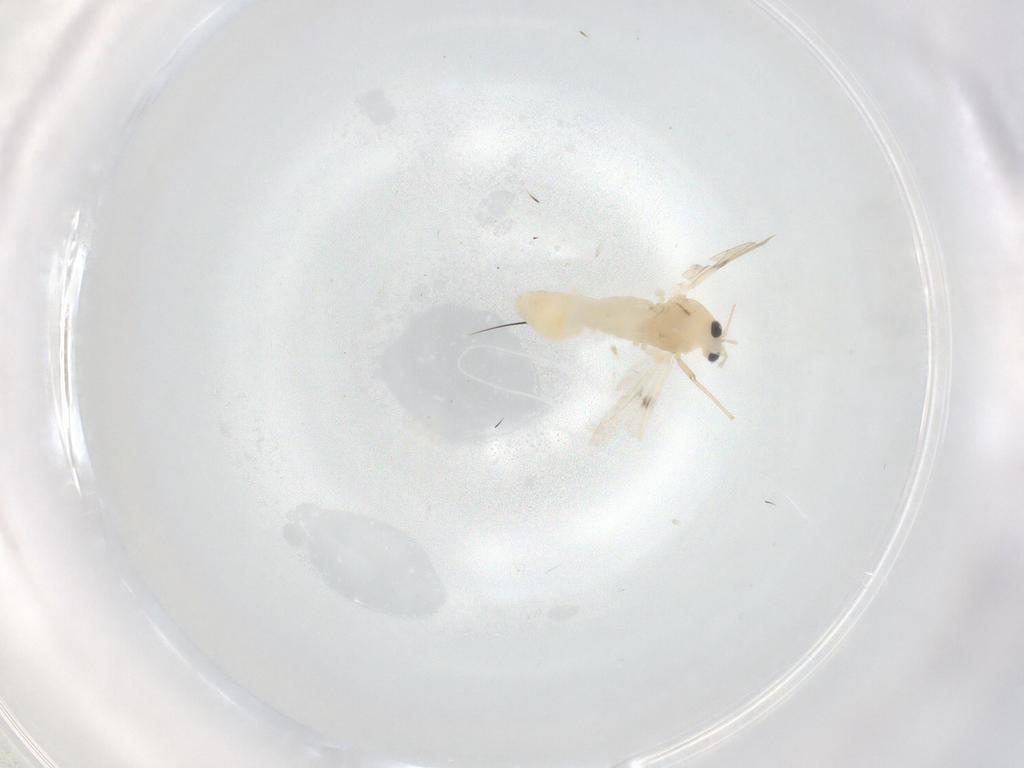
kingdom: Animalia
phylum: Arthropoda
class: Insecta
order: Diptera
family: Chironomidae
